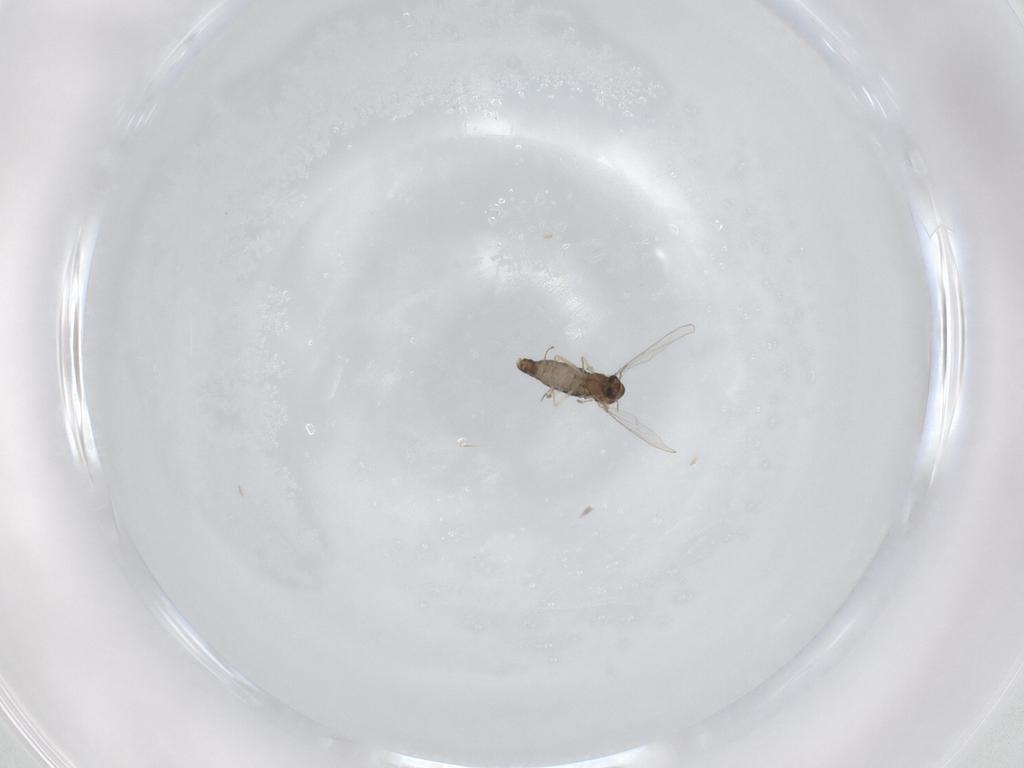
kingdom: Animalia
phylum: Arthropoda
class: Insecta
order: Diptera
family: Chironomidae
